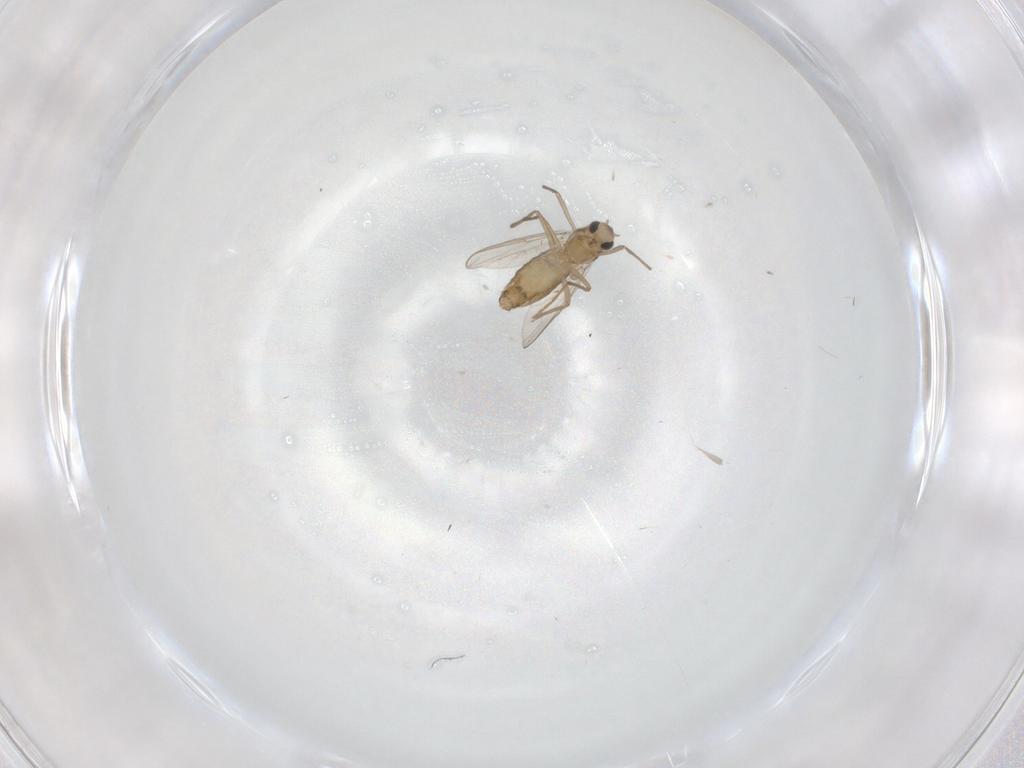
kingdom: Animalia
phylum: Arthropoda
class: Insecta
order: Diptera
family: Chironomidae
